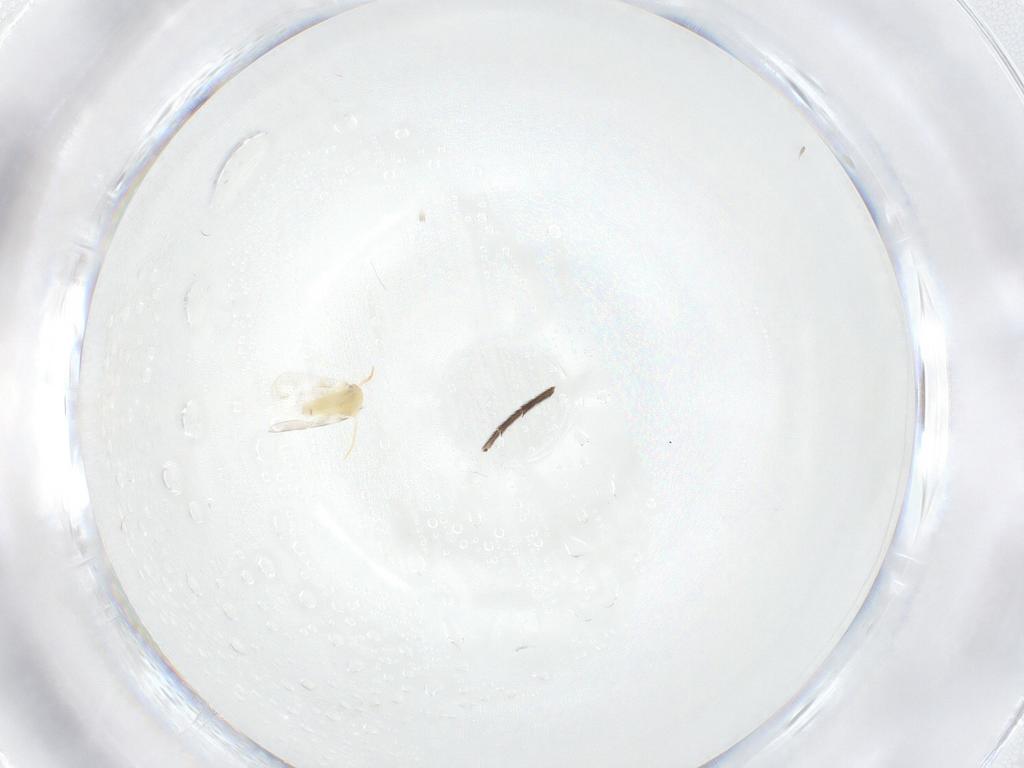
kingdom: Animalia
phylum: Arthropoda
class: Insecta
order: Diptera
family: Mycetophilidae
